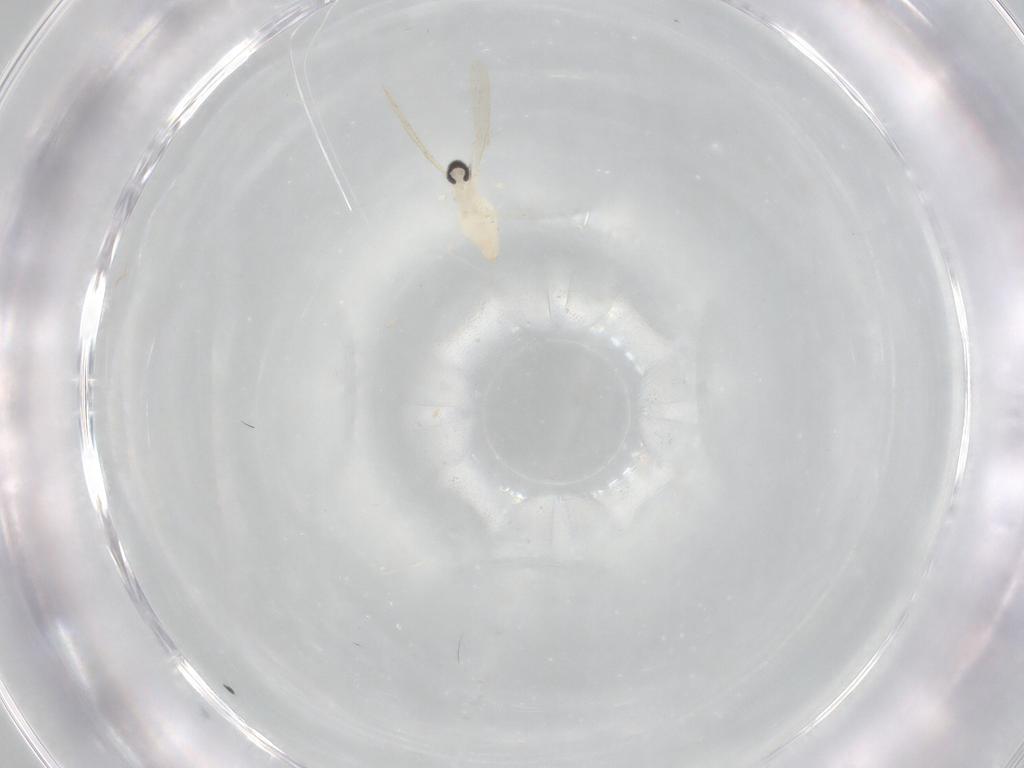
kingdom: Animalia
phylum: Arthropoda
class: Insecta
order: Diptera
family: Cecidomyiidae
